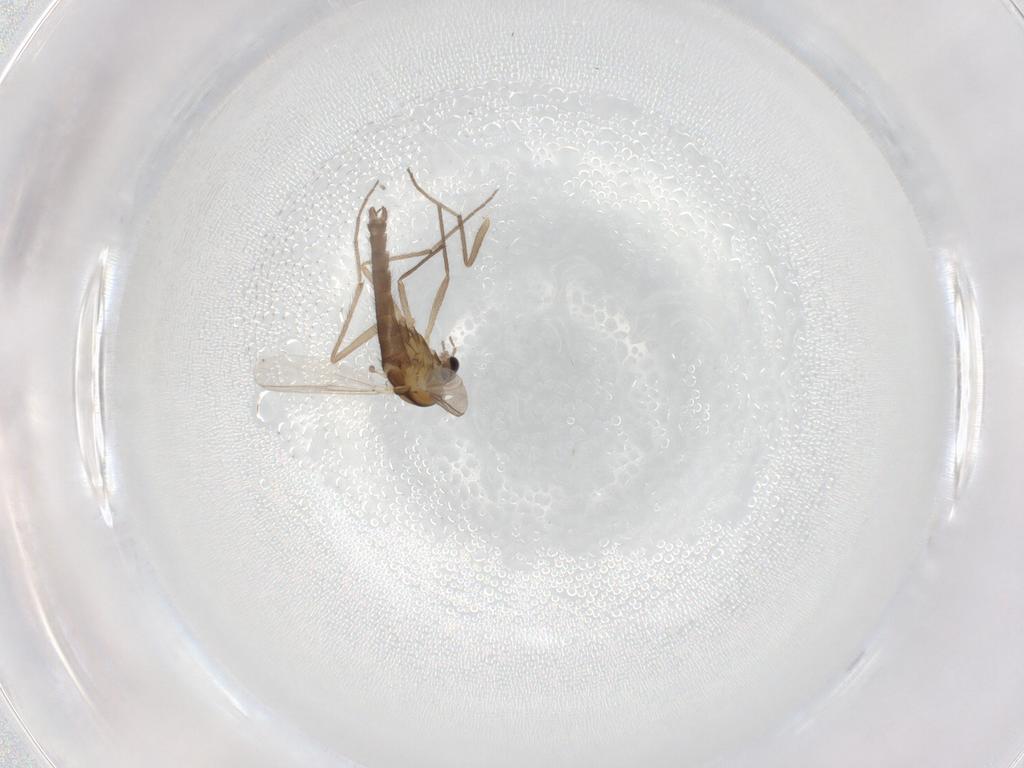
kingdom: Animalia
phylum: Arthropoda
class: Insecta
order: Diptera
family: Chironomidae
